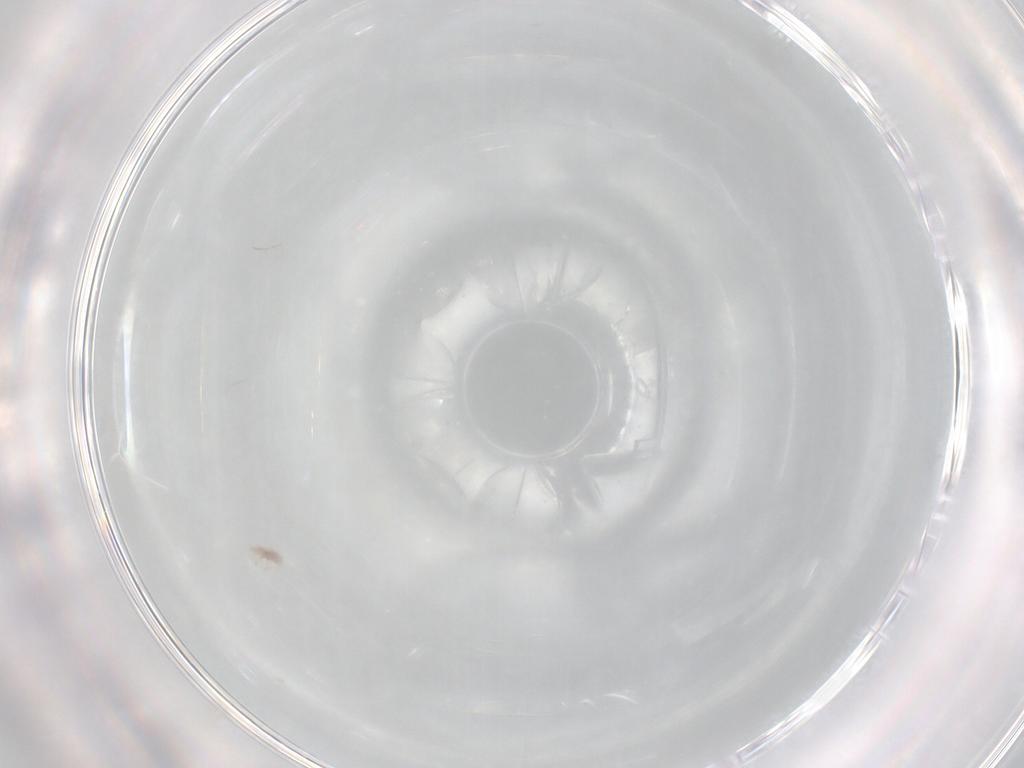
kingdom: Animalia
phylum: Arthropoda
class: Arachnida
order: Trombidiformes
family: Bdellidae
